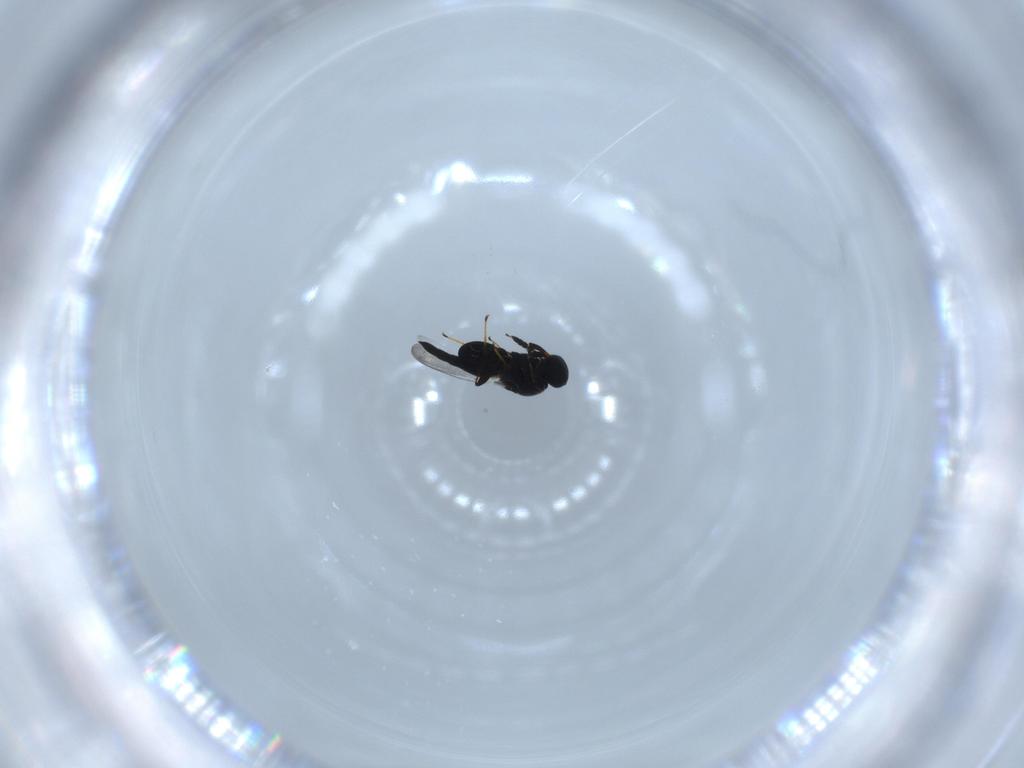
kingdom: Animalia
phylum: Arthropoda
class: Insecta
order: Hymenoptera
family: Platygastridae
